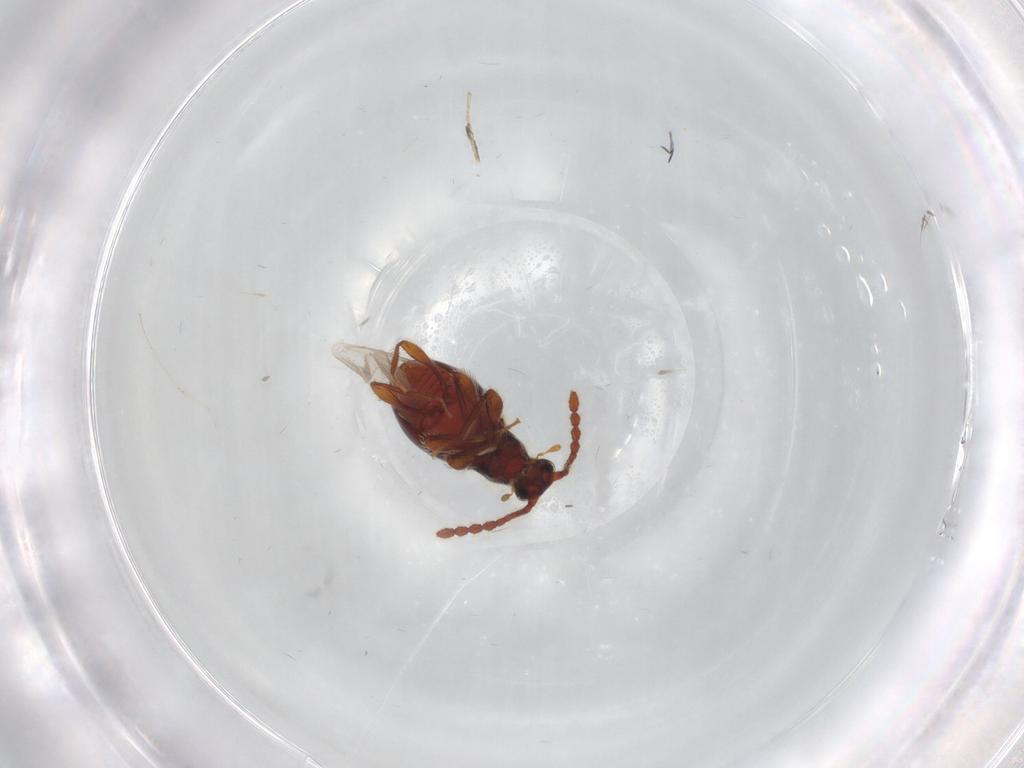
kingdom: Animalia
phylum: Arthropoda
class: Insecta
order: Coleoptera
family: Staphylinidae
